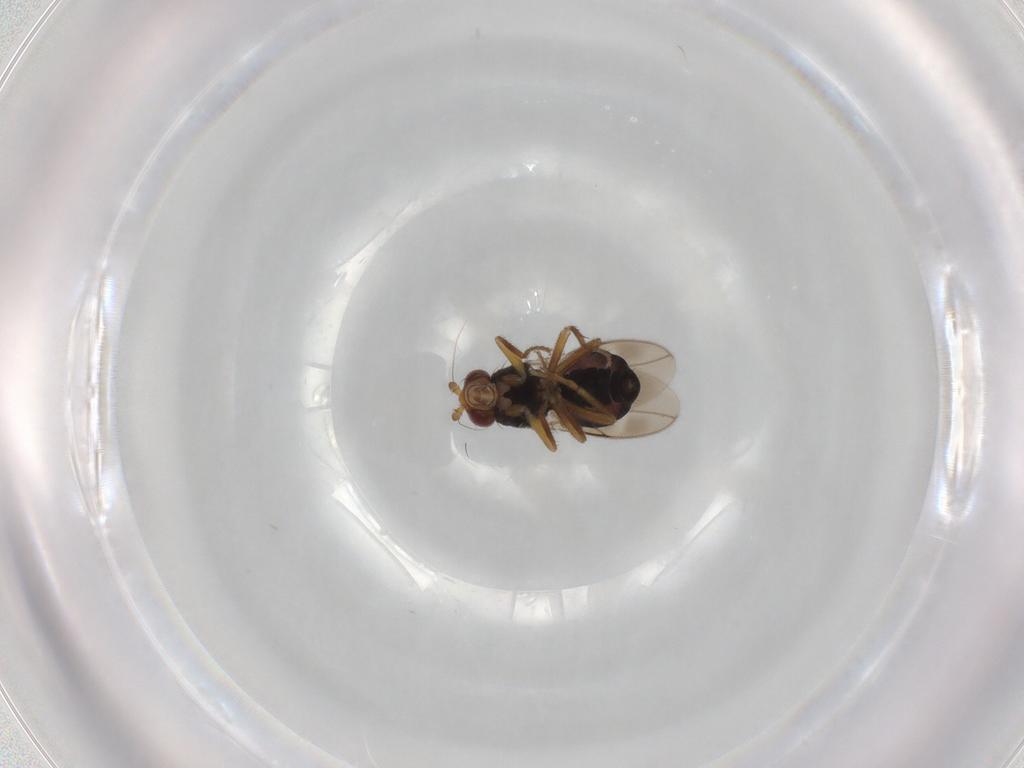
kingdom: Animalia
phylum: Arthropoda
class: Insecta
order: Diptera
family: Sphaeroceridae
